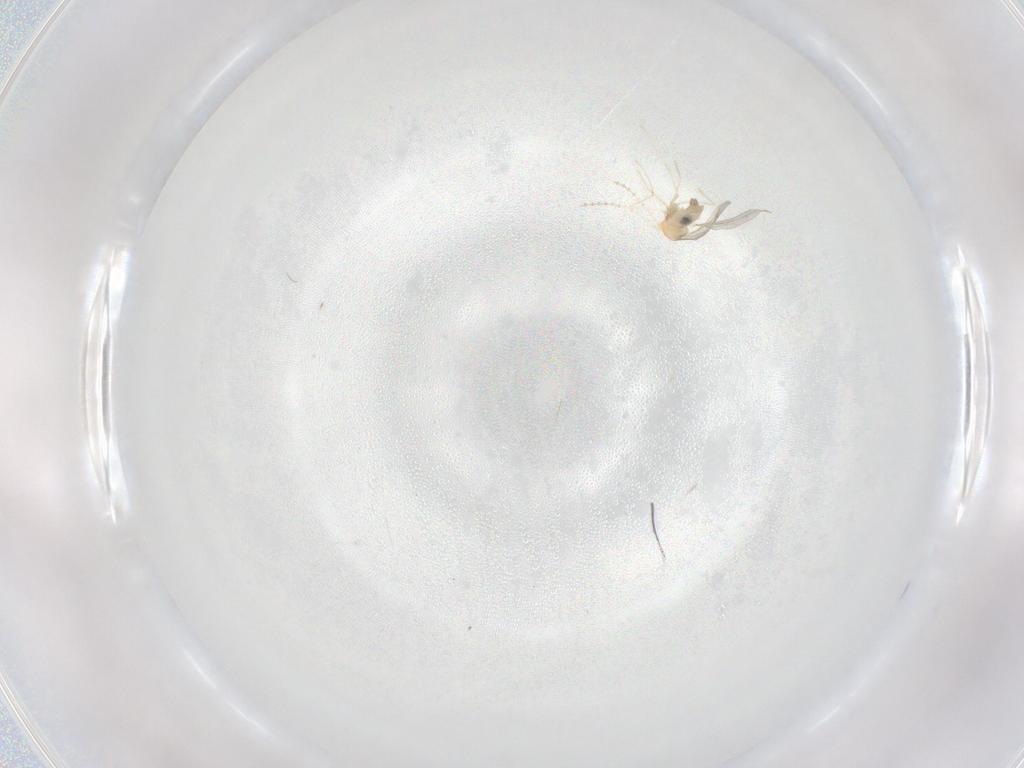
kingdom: Animalia
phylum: Arthropoda
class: Insecta
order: Diptera
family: Cecidomyiidae
